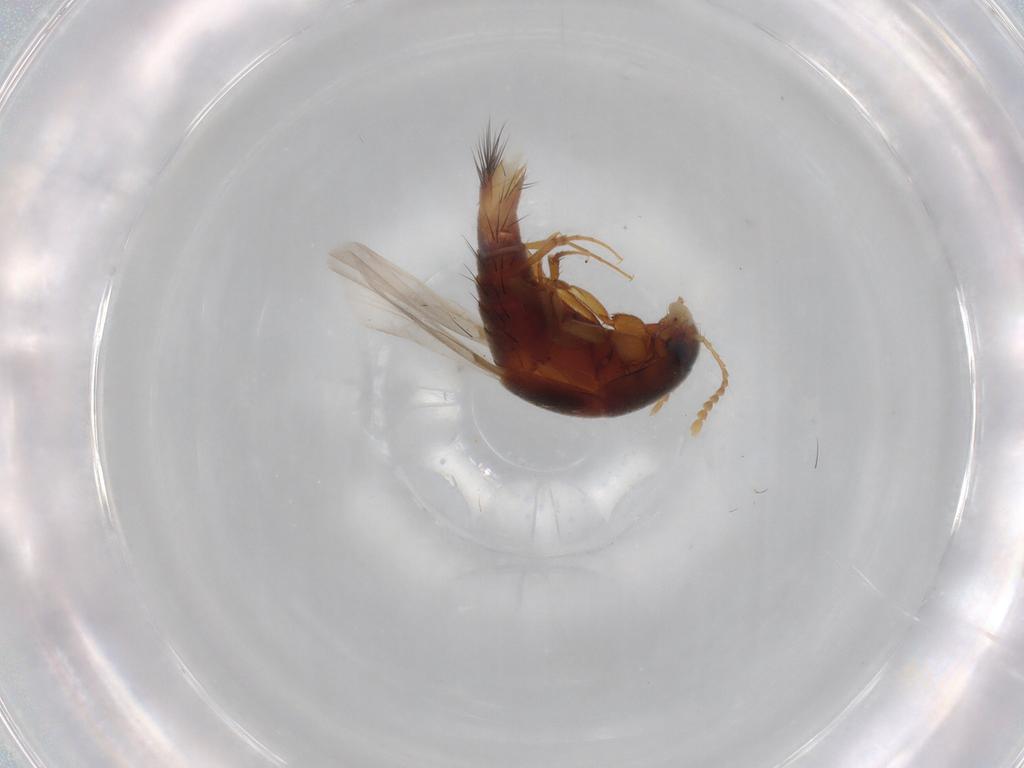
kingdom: Animalia
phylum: Arthropoda
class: Insecta
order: Coleoptera
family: Staphylinidae
